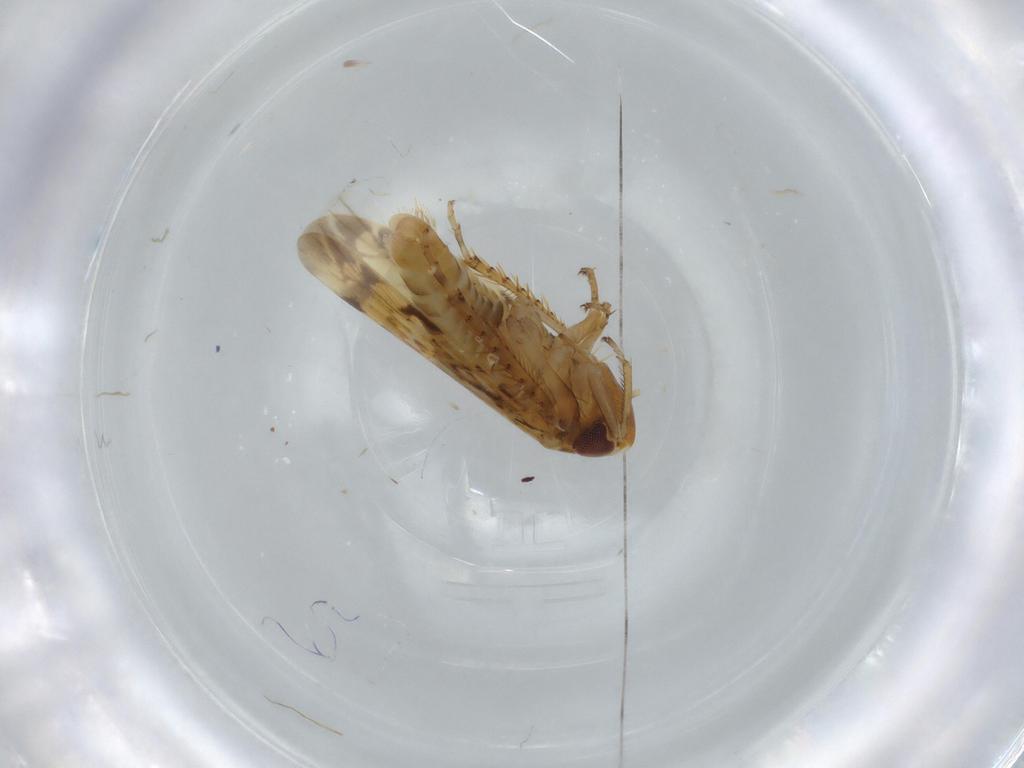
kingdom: Animalia
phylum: Arthropoda
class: Insecta
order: Hemiptera
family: Cicadellidae
